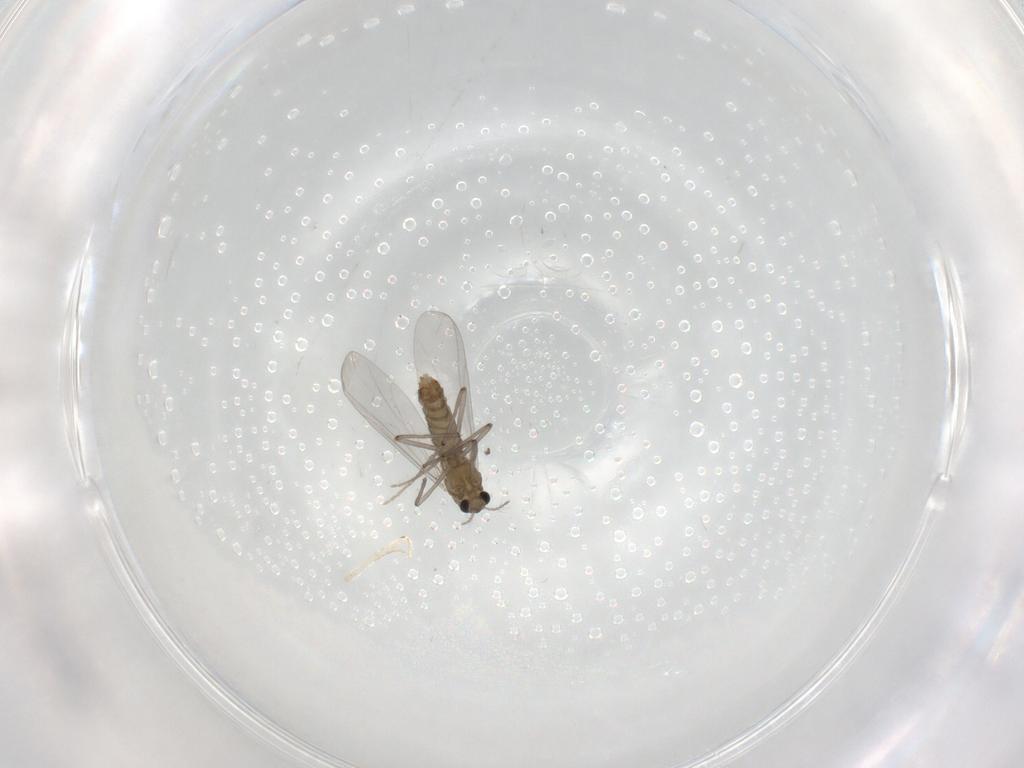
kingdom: Animalia
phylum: Arthropoda
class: Insecta
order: Diptera
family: Chironomidae
